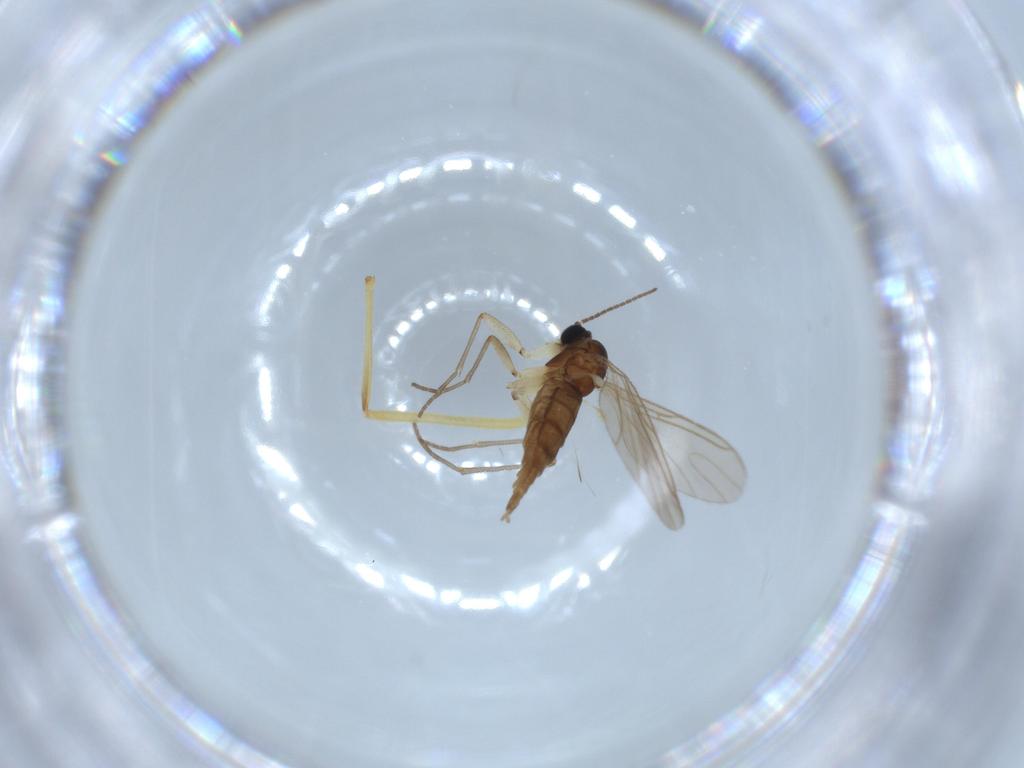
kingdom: Animalia
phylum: Arthropoda
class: Insecta
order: Diptera
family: Sciaridae
